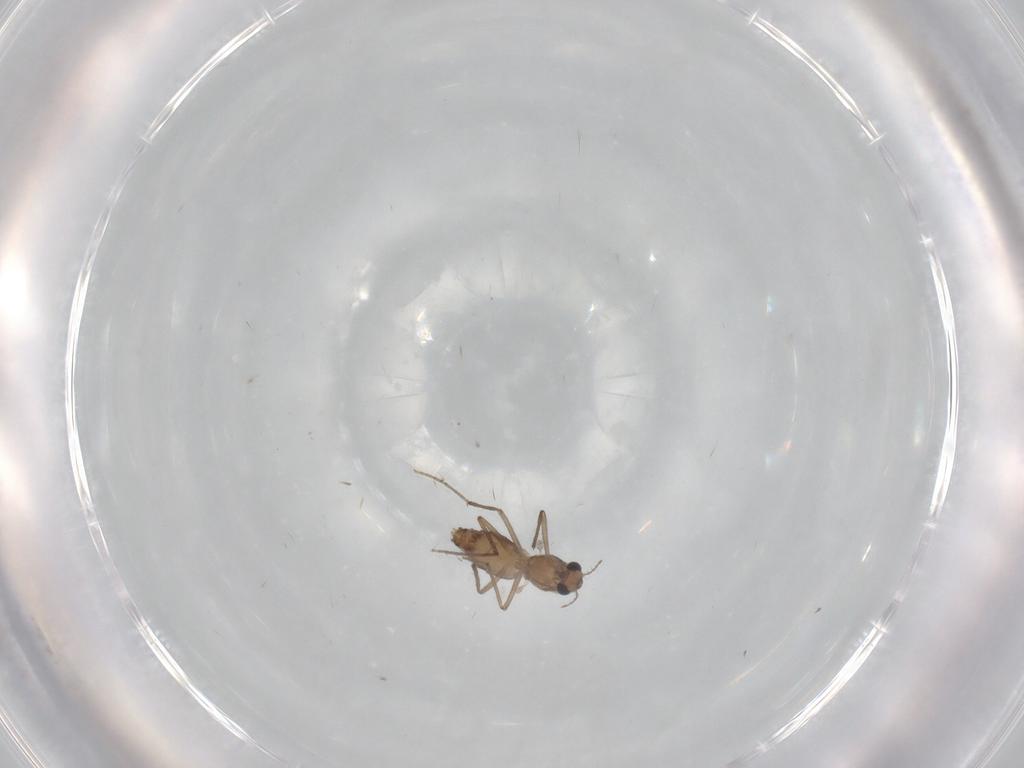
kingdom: Animalia
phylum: Arthropoda
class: Insecta
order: Diptera
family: Chironomidae
